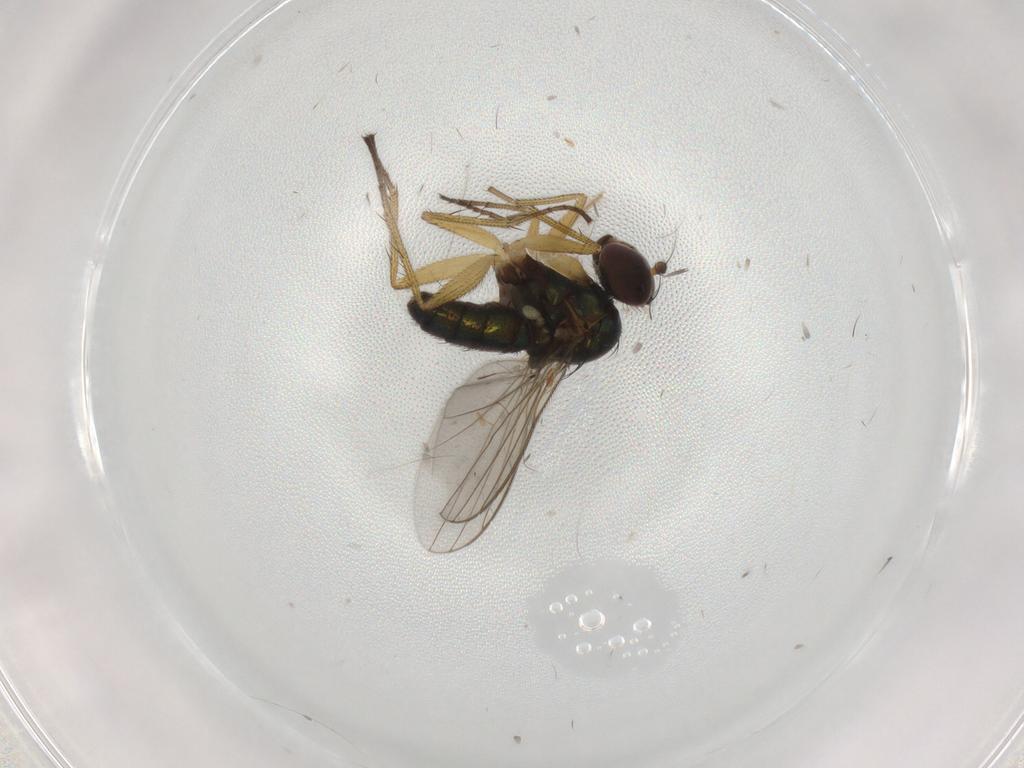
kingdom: Animalia
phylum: Arthropoda
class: Insecta
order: Diptera
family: Dolichopodidae
